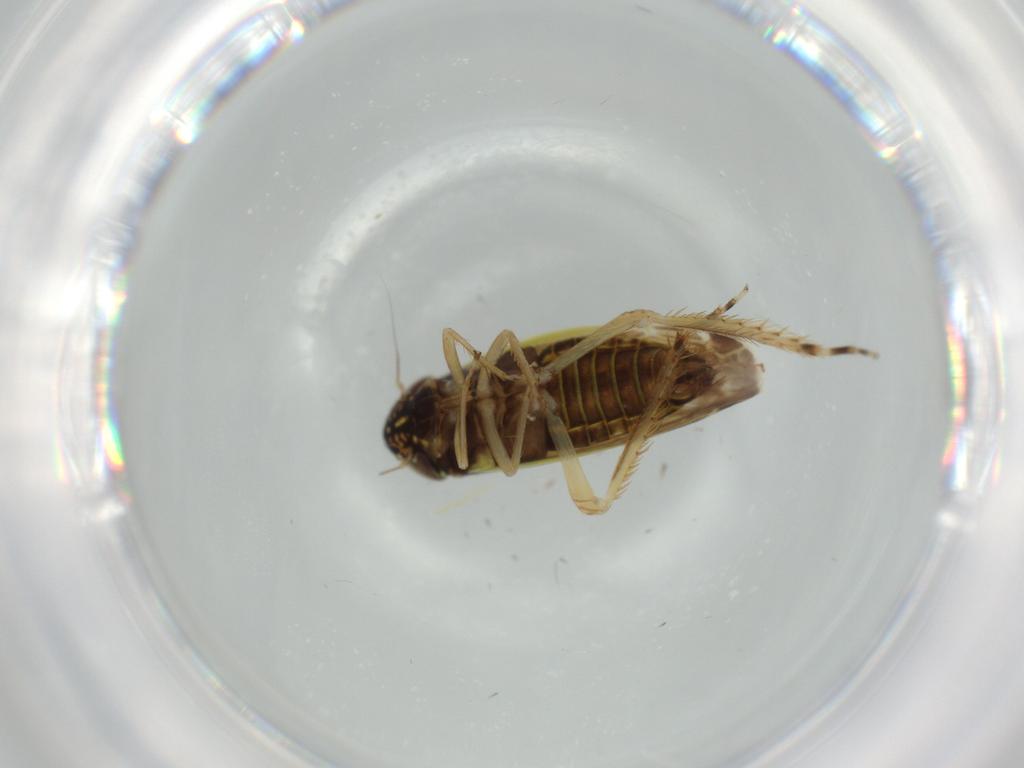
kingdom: Animalia
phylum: Arthropoda
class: Insecta
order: Hemiptera
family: Cicadellidae
